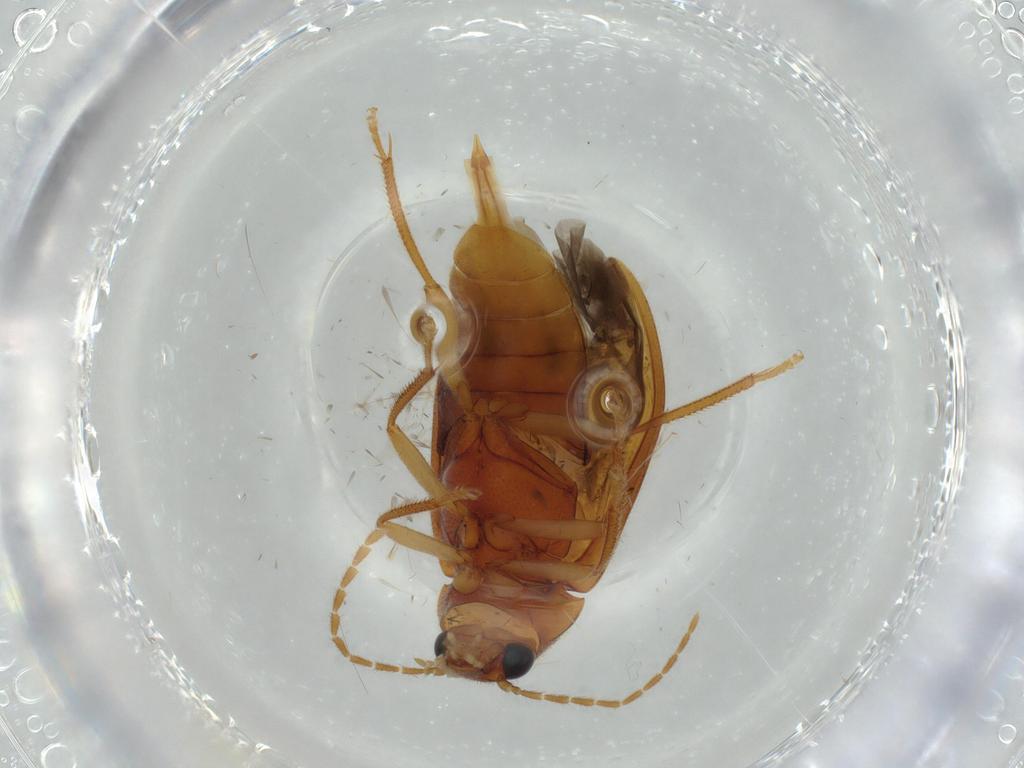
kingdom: Animalia
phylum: Arthropoda
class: Insecta
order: Coleoptera
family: Ptilodactylidae
